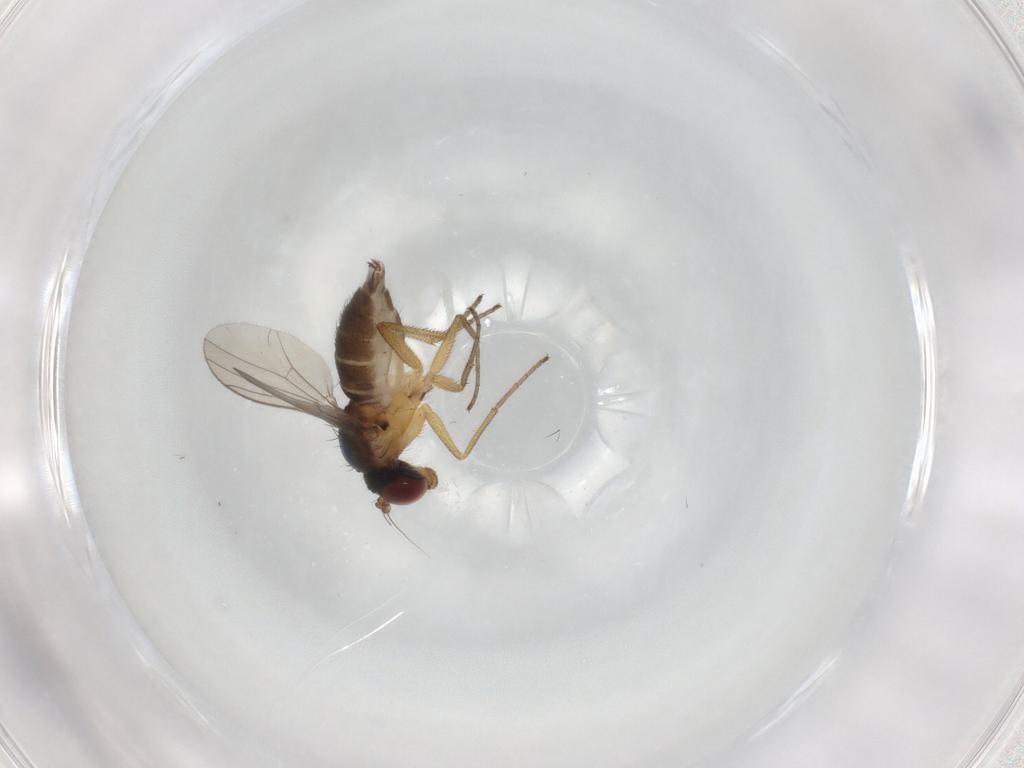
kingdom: Animalia
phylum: Arthropoda
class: Insecta
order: Diptera
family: Dolichopodidae
